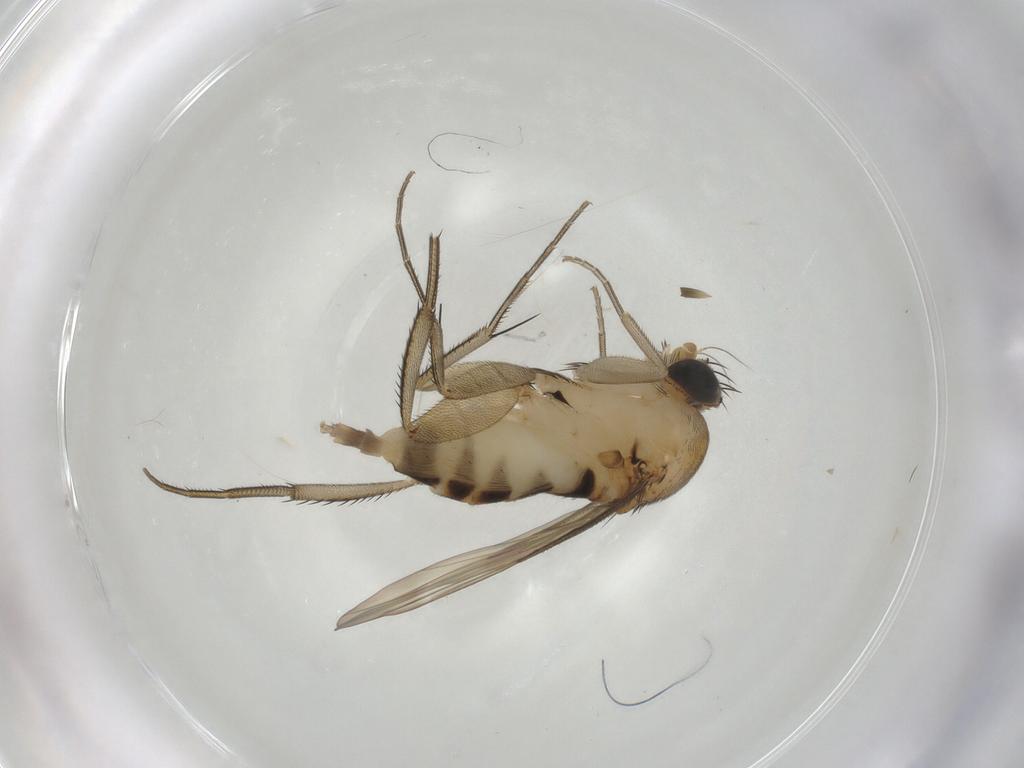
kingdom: Animalia
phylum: Arthropoda
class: Insecta
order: Diptera
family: Phoridae
